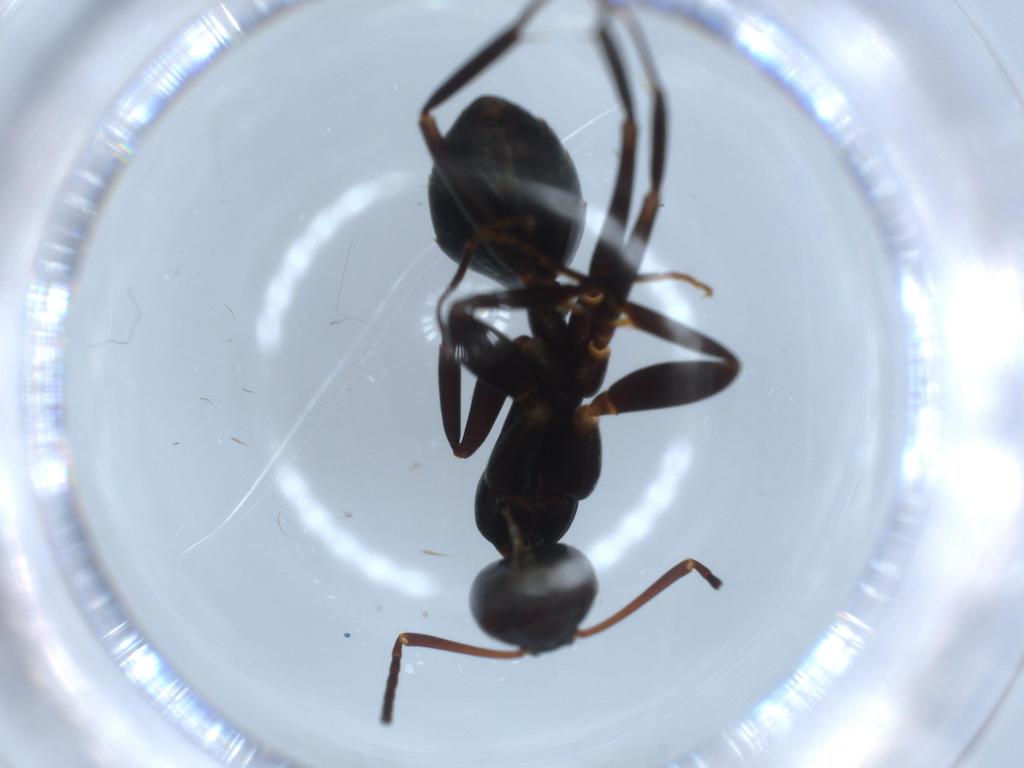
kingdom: Animalia
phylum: Arthropoda
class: Insecta
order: Hymenoptera
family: Formicidae
